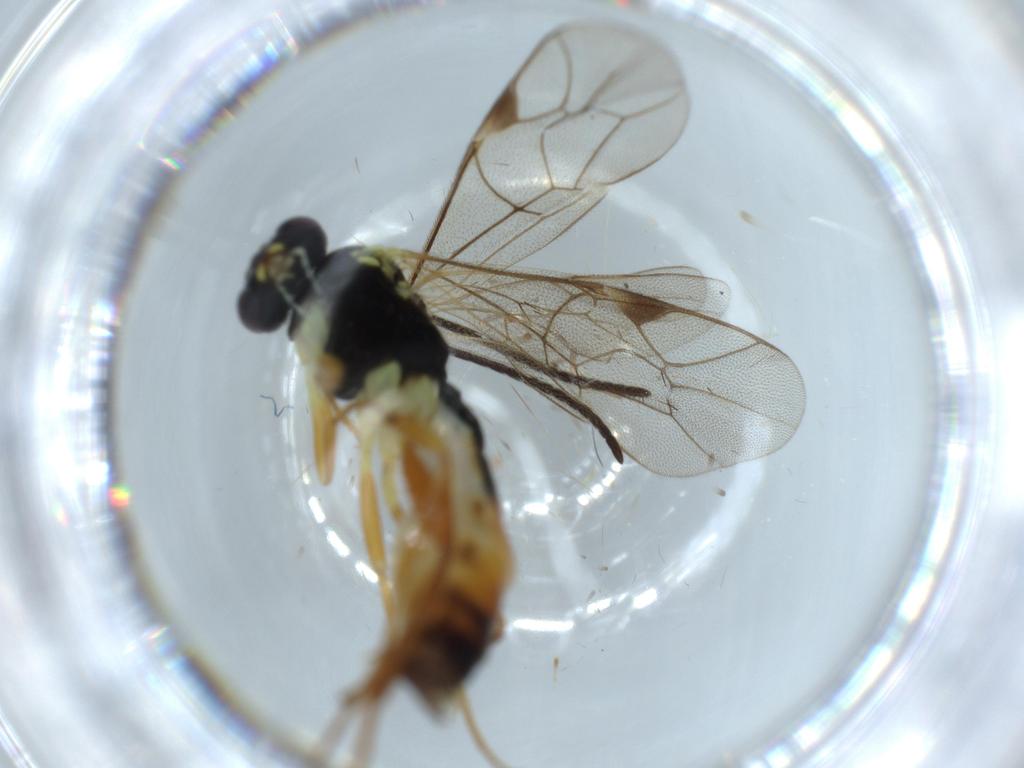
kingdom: Animalia
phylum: Arthropoda
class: Insecta
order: Hymenoptera
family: Scelionidae
